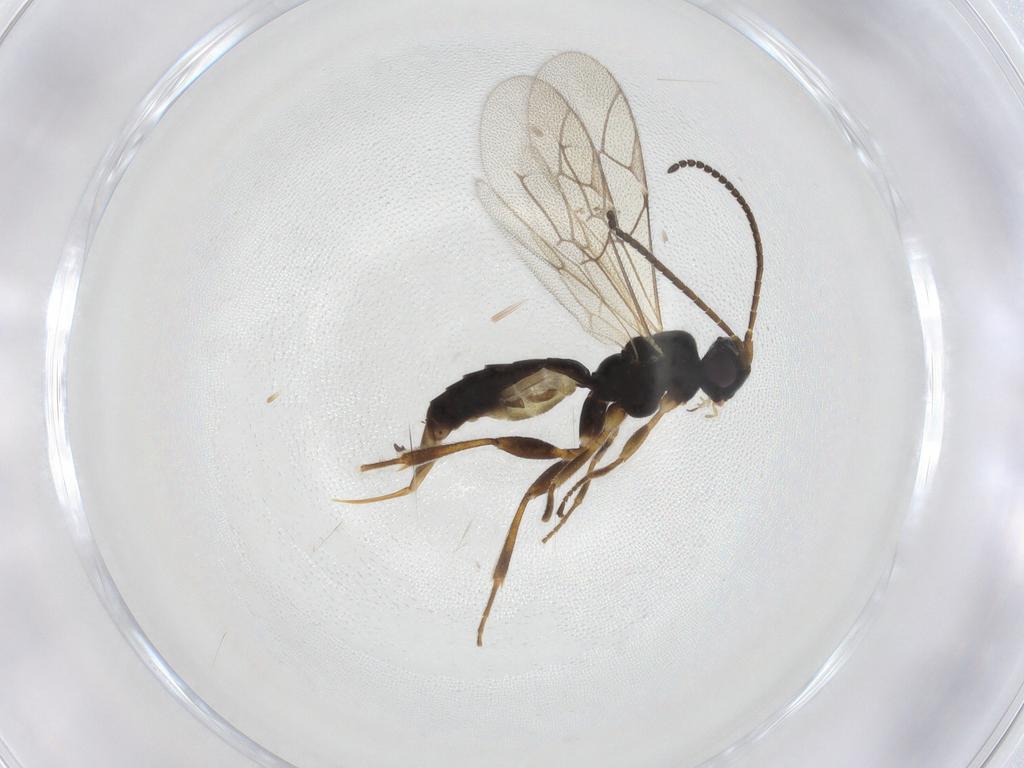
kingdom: Animalia
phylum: Arthropoda
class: Insecta
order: Hymenoptera
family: Ichneumonidae
